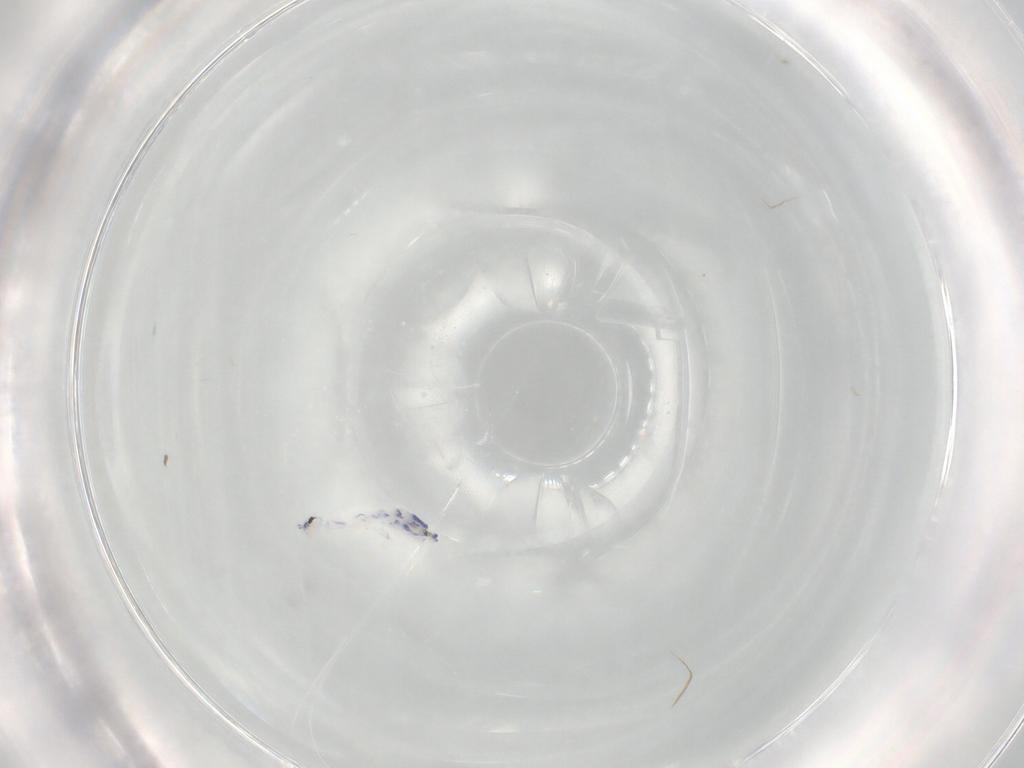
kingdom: Animalia
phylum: Arthropoda
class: Collembola
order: Entomobryomorpha
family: Entomobryidae
